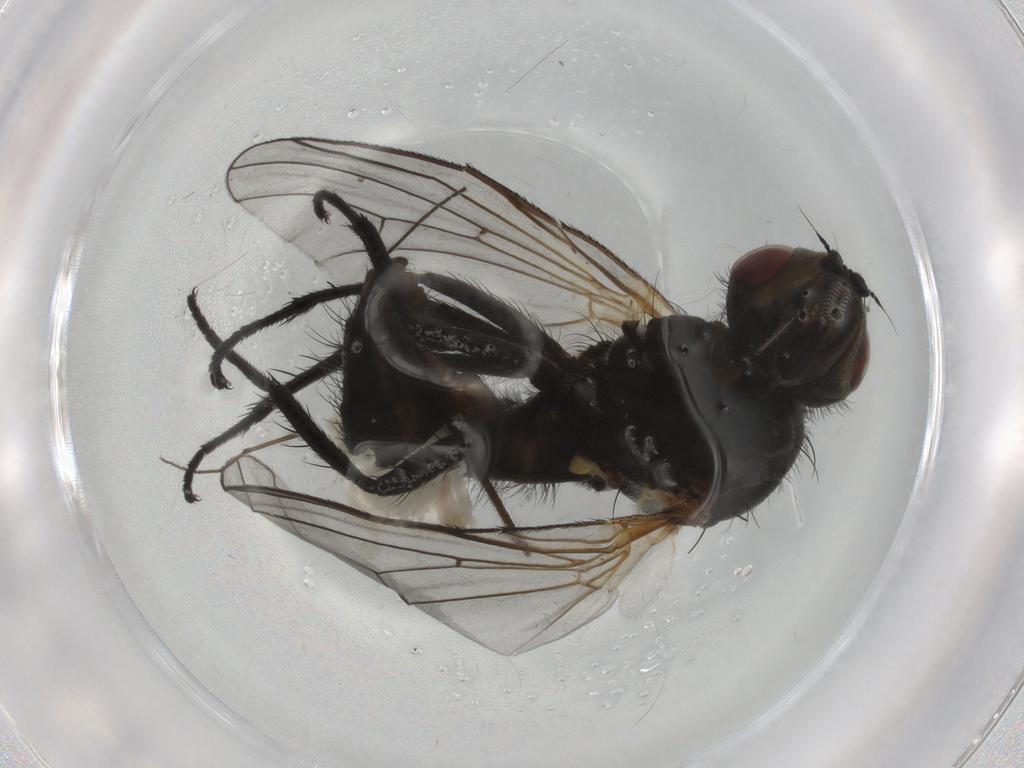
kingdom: Animalia
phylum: Arthropoda
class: Insecta
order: Diptera
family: Anthomyiidae
